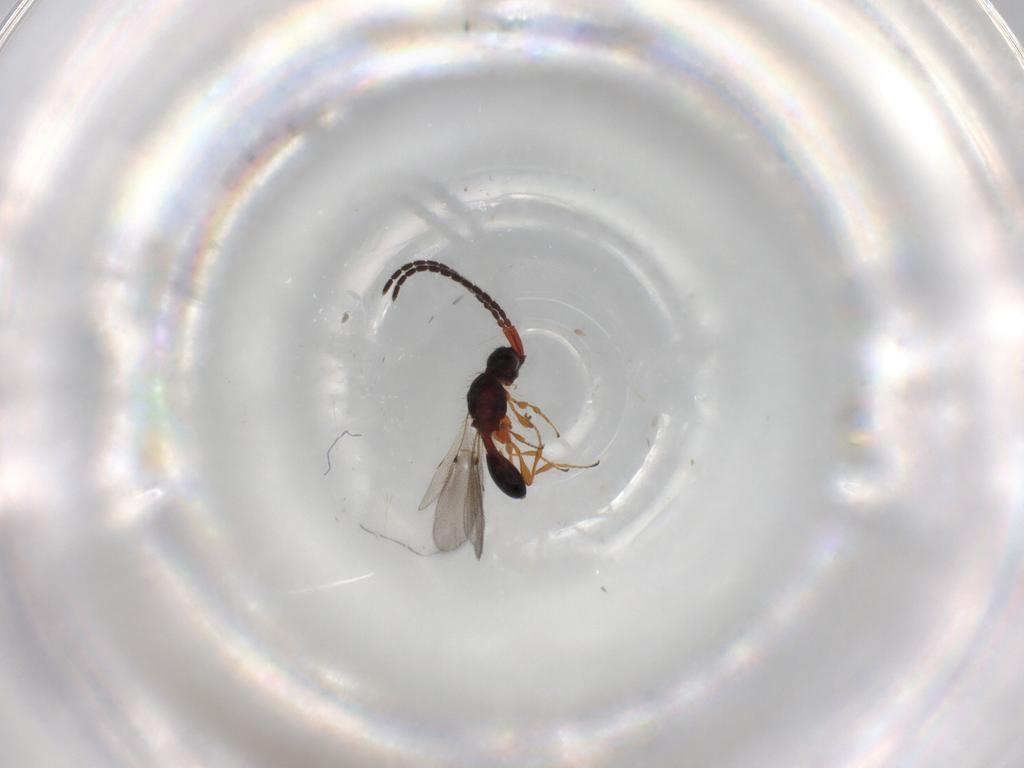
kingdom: Animalia
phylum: Arthropoda
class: Insecta
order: Hymenoptera
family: Diapriidae
